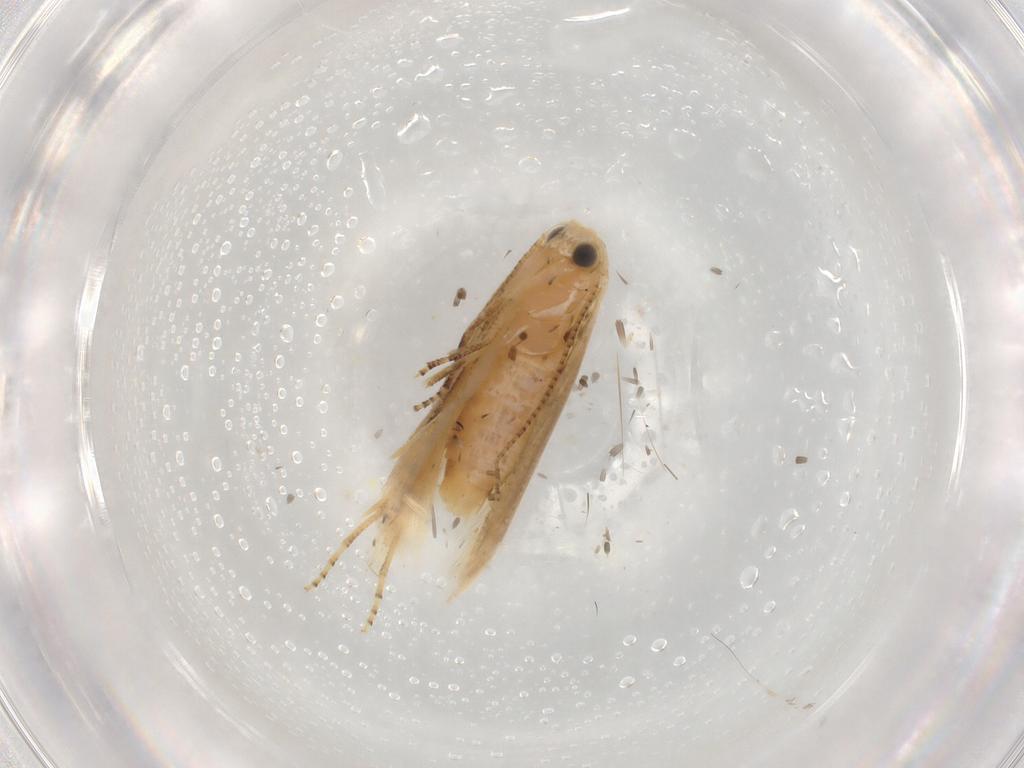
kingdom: Animalia
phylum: Arthropoda
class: Insecta
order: Lepidoptera
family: Bucculatricidae
